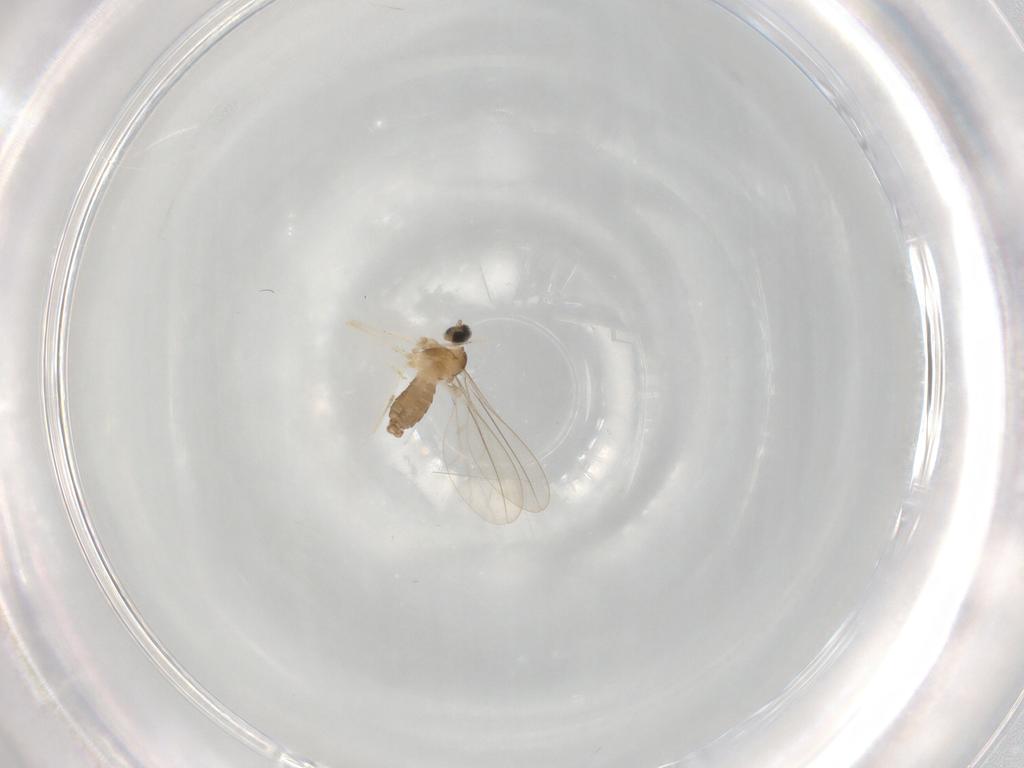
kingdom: Animalia
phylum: Arthropoda
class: Insecta
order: Diptera
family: Cecidomyiidae
